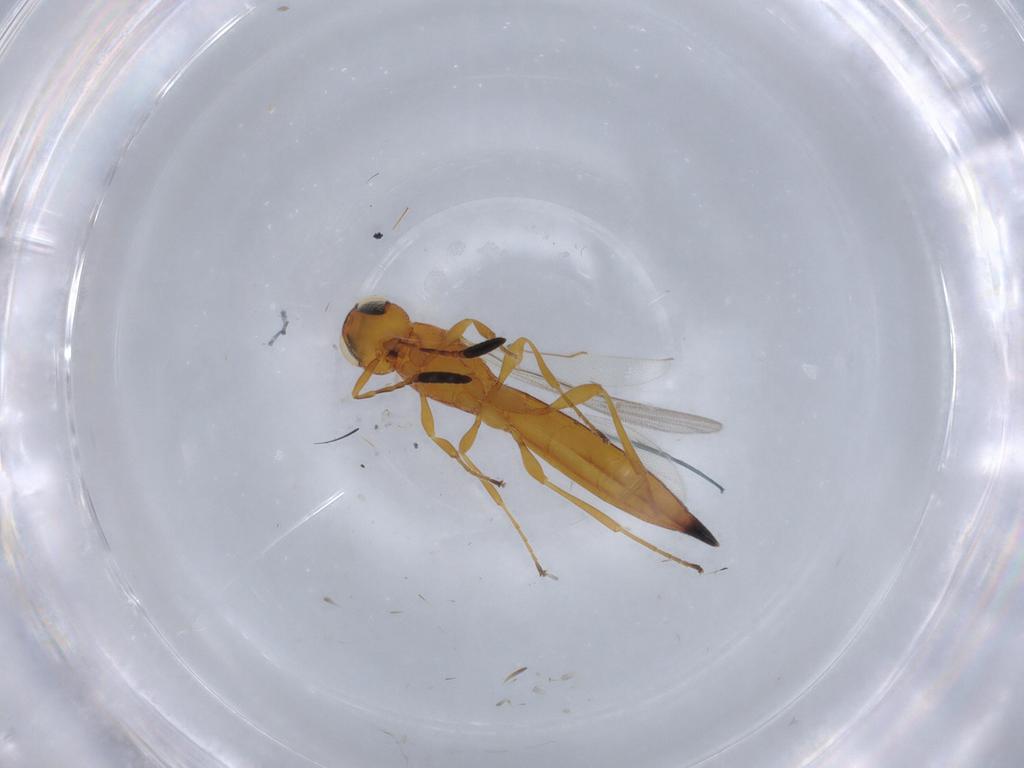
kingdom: Animalia
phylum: Arthropoda
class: Insecta
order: Hymenoptera
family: Scelionidae
